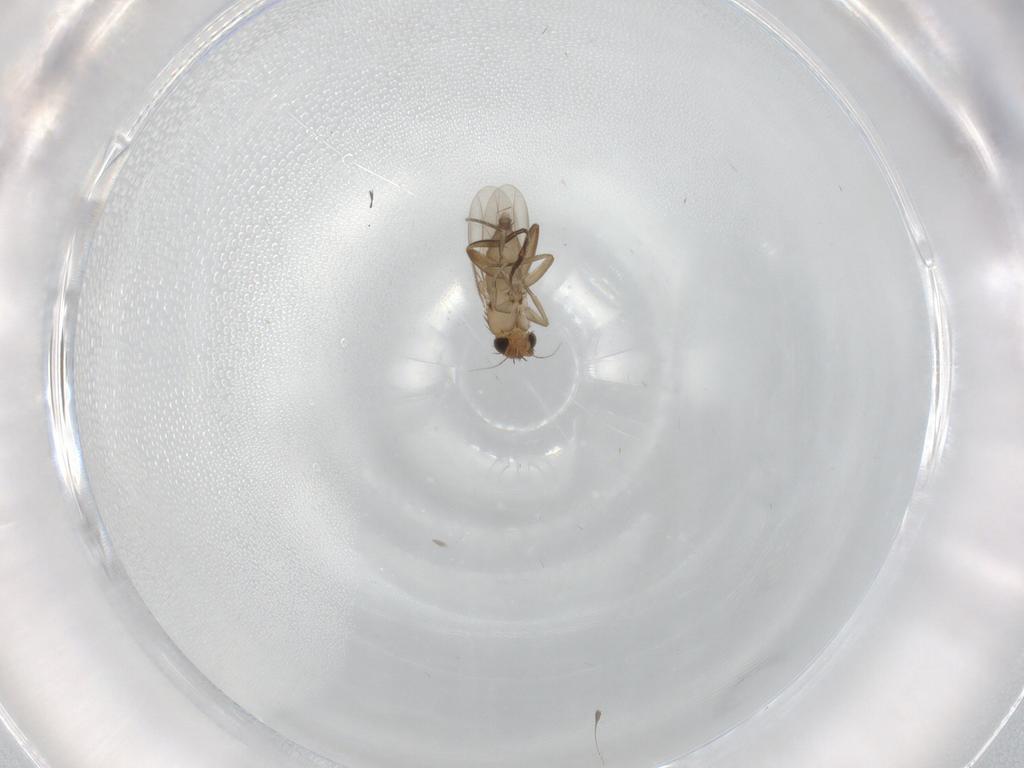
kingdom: Animalia
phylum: Arthropoda
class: Insecta
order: Diptera
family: Phoridae
